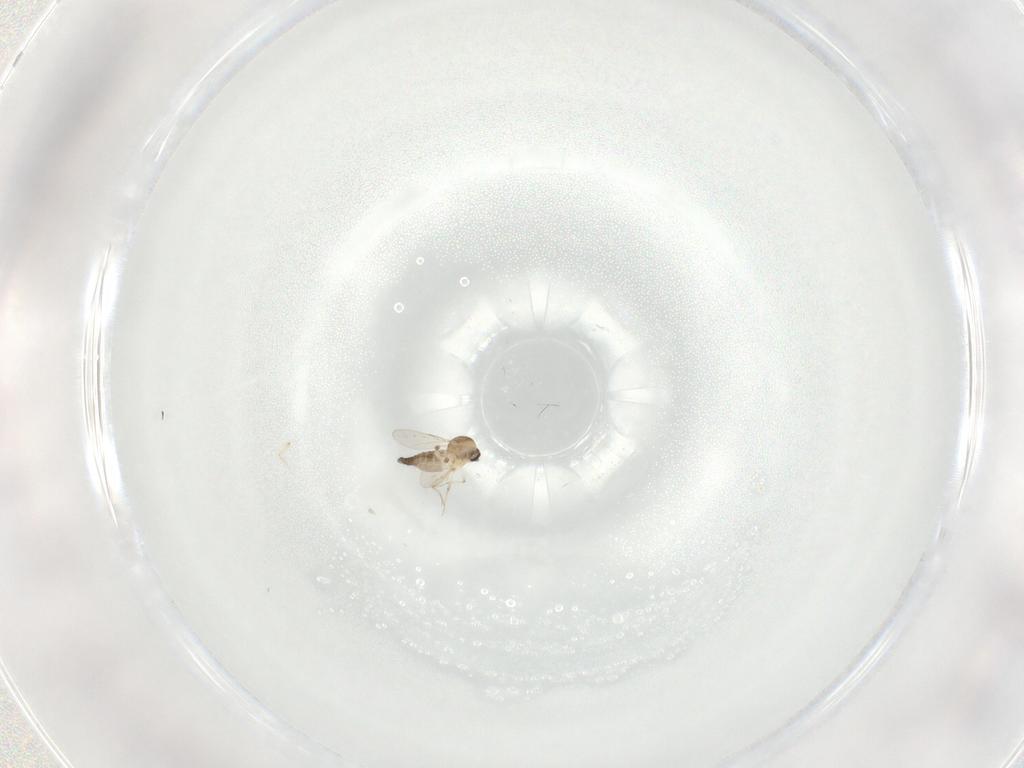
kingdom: Animalia
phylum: Arthropoda
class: Insecta
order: Diptera
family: Ceratopogonidae
